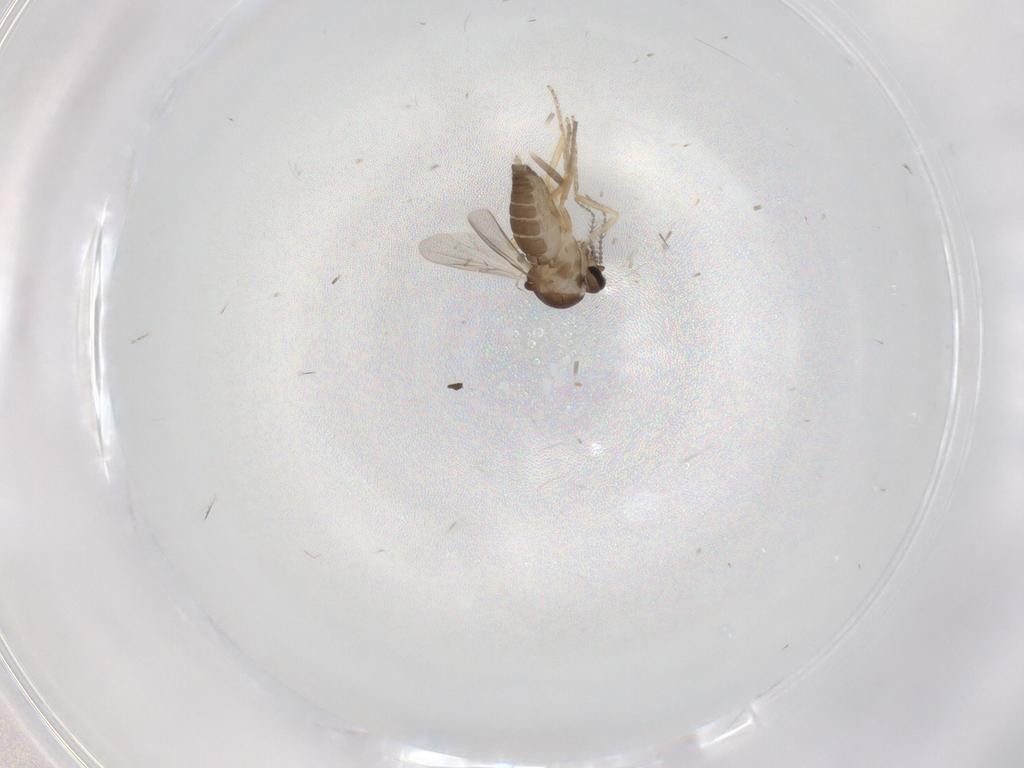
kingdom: Animalia
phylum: Arthropoda
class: Insecta
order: Diptera
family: Ceratopogonidae
